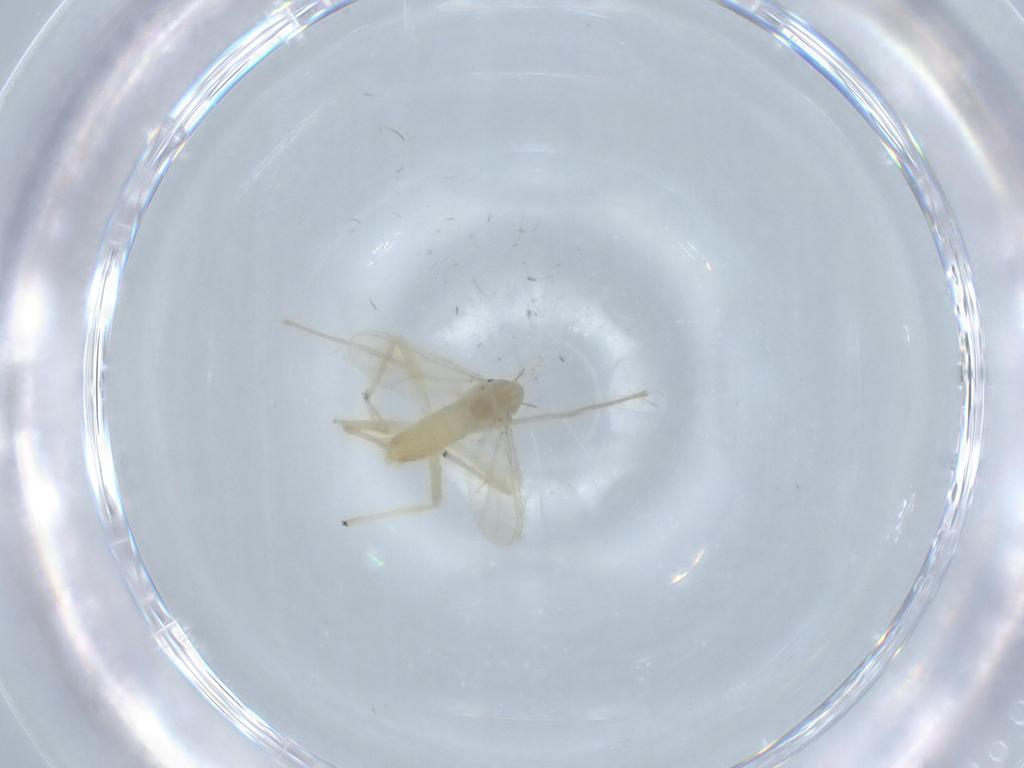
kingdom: Animalia
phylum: Arthropoda
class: Insecta
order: Diptera
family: Chironomidae
